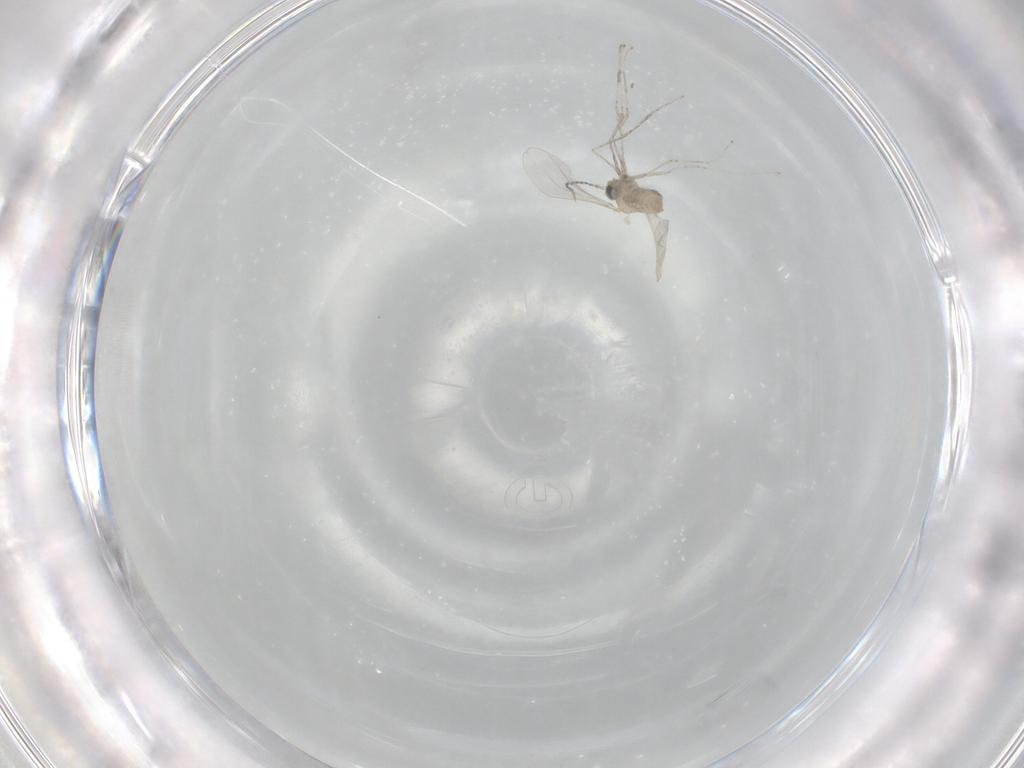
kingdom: Animalia
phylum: Arthropoda
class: Insecta
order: Diptera
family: Cecidomyiidae
